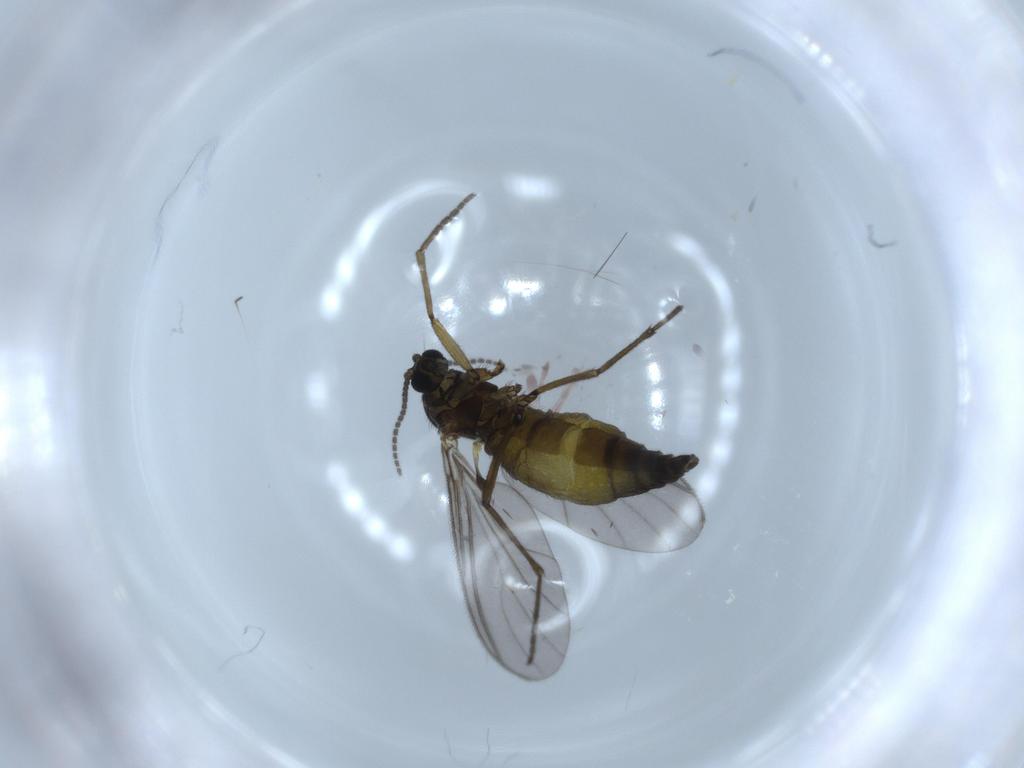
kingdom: Animalia
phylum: Arthropoda
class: Insecta
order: Diptera
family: Sciaridae
